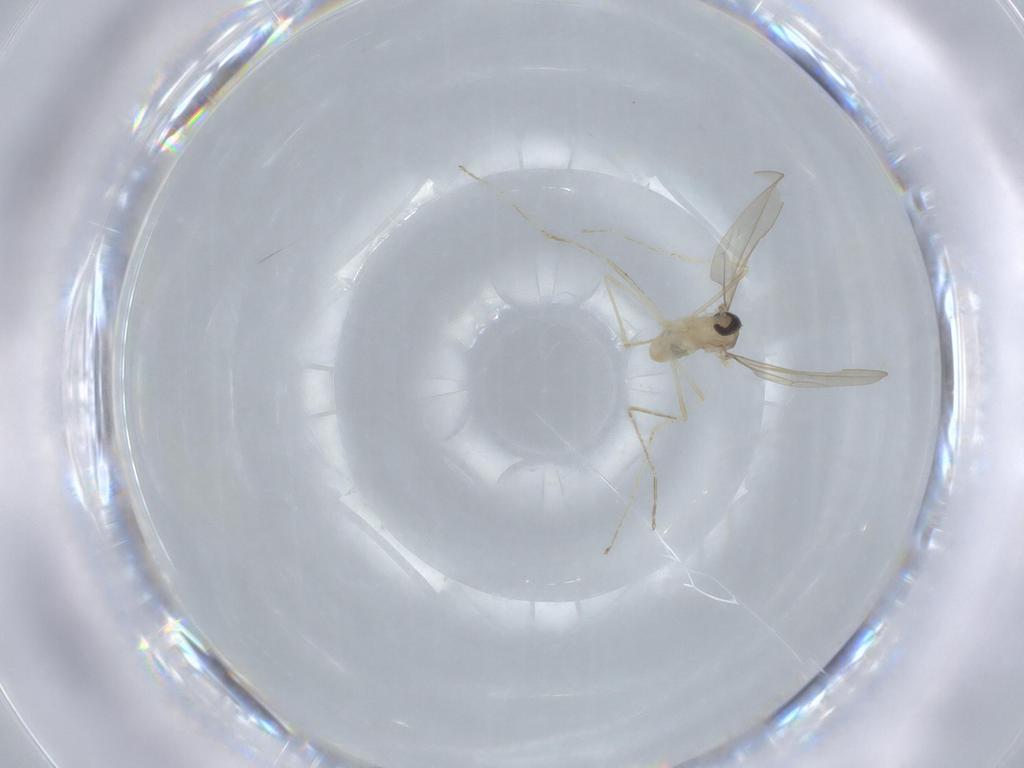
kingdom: Animalia
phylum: Arthropoda
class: Insecta
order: Diptera
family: Cecidomyiidae
